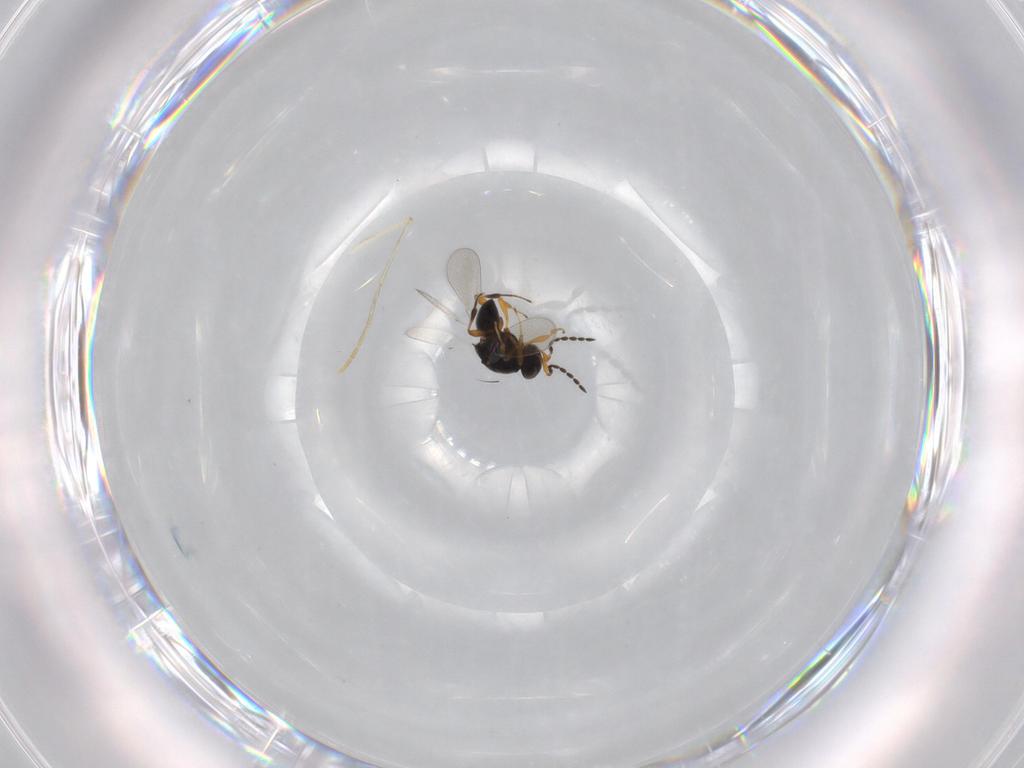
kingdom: Animalia
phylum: Arthropoda
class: Insecta
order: Hymenoptera
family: Platygastridae
